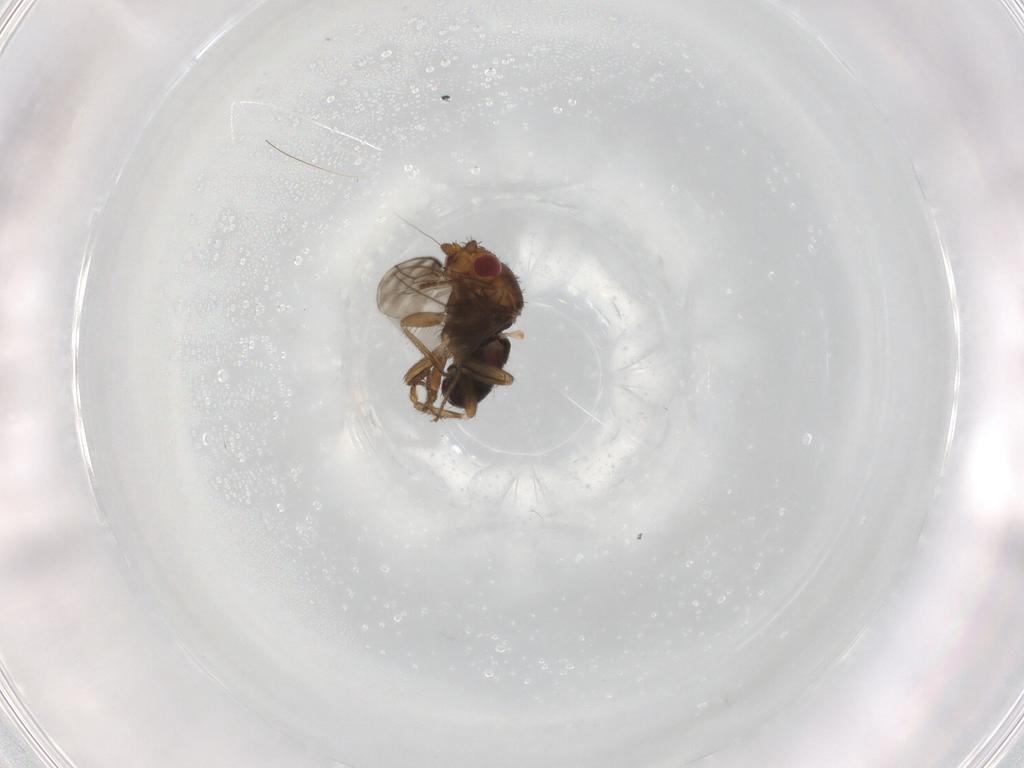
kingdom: Animalia
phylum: Arthropoda
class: Insecta
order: Diptera
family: Sphaeroceridae
